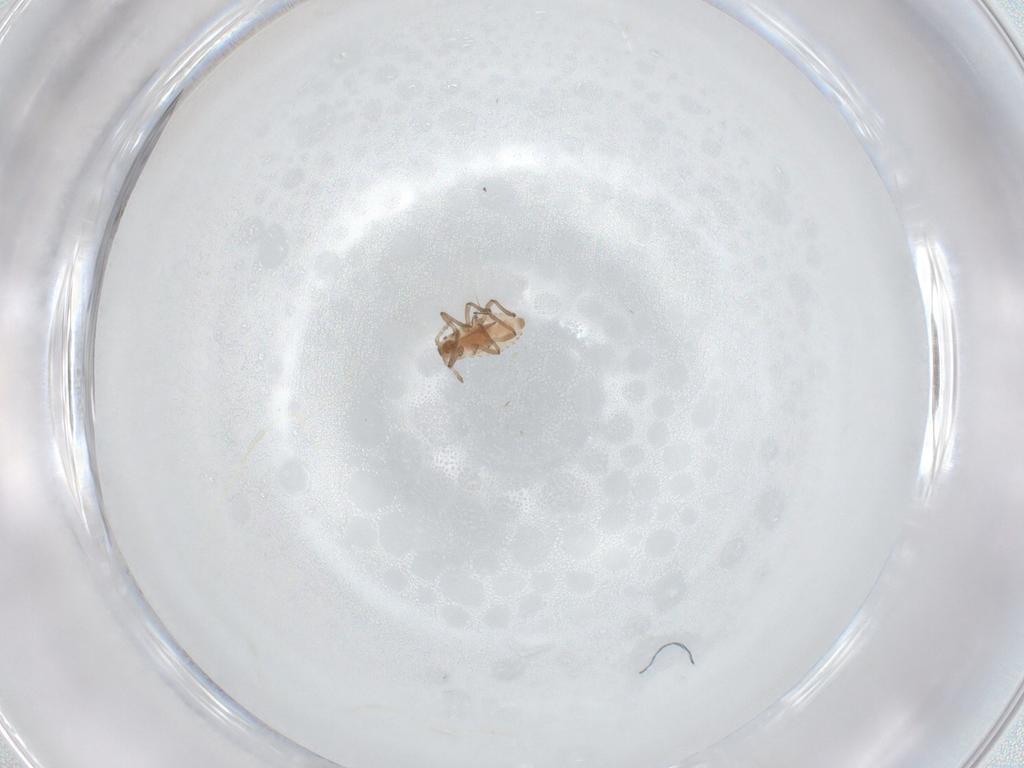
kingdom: Animalia
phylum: Arthropoda
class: Insecta
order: Hemiptera
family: Aphididae
